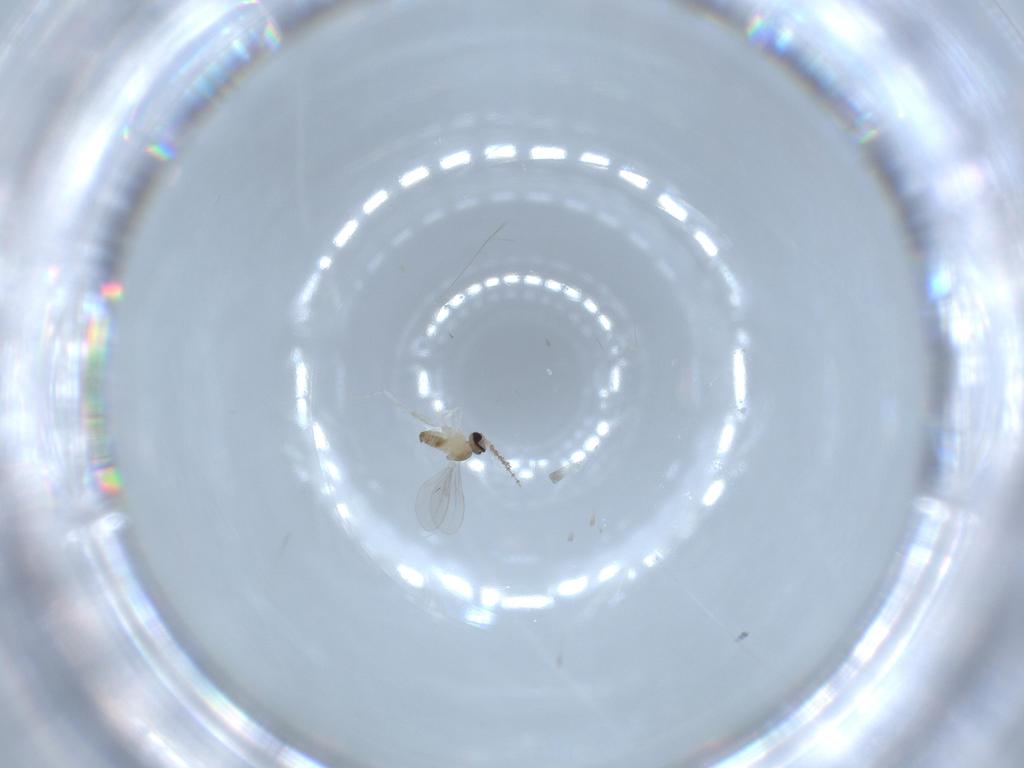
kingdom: Animalia
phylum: Arthropoda
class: Insecta
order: Diptera
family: Cecidomyiidae
